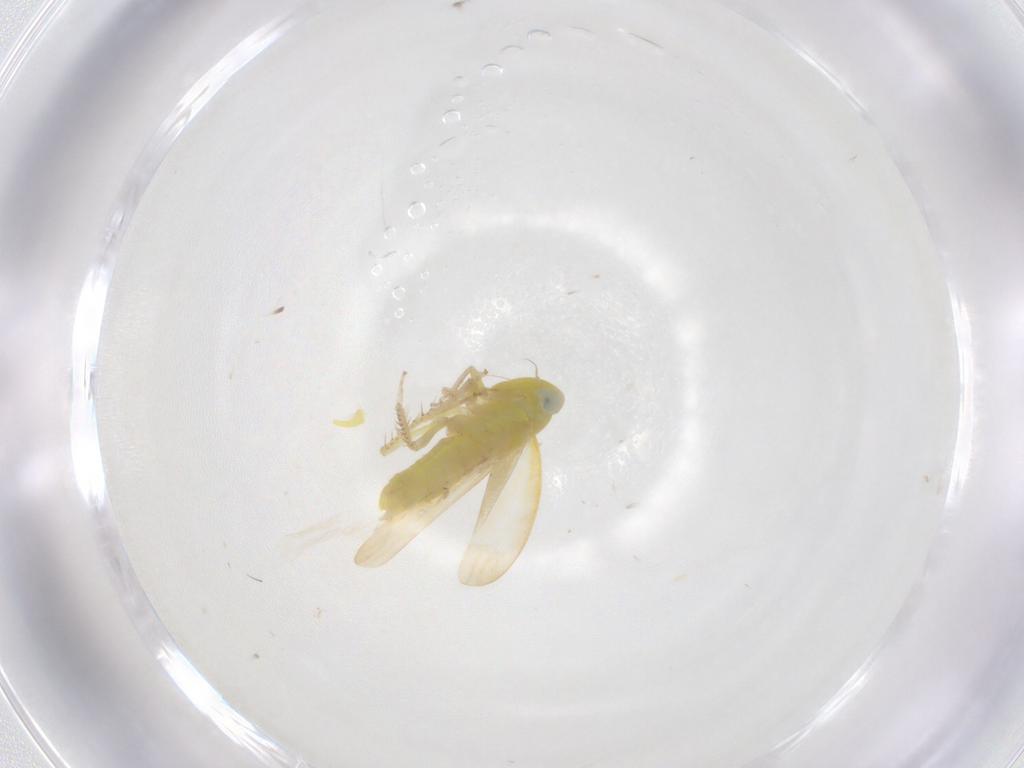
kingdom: Animalia
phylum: Arthropoda
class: Insecta
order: Hemiptera
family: Cicadellidae
